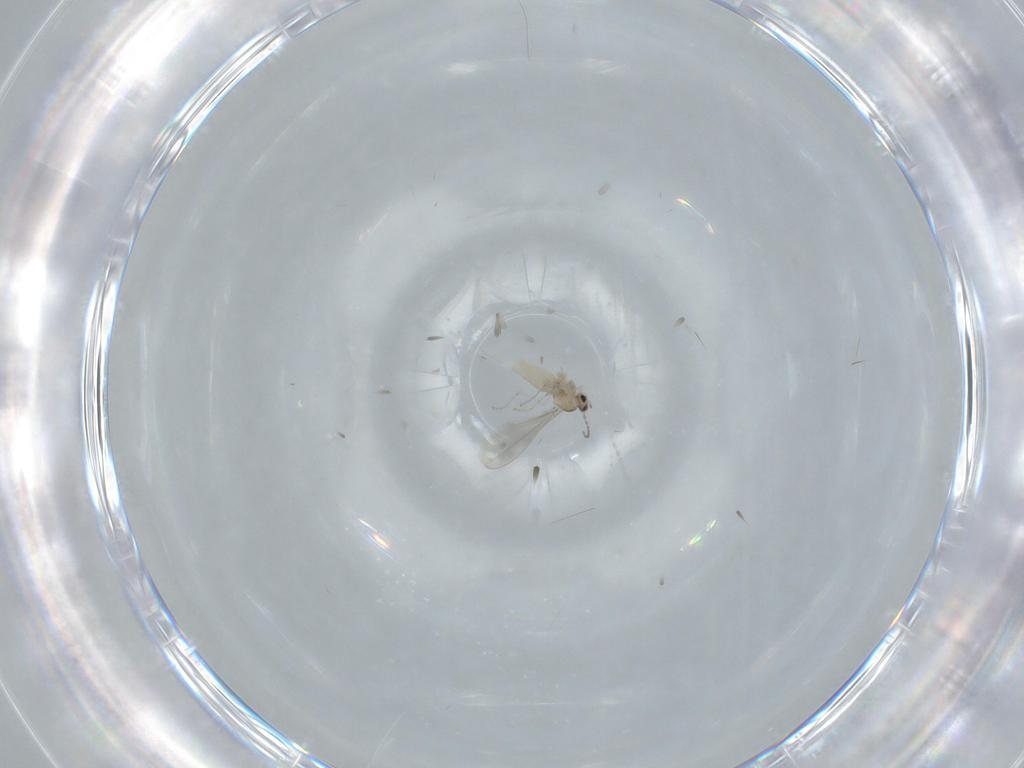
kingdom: Animalia
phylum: Arthropoda
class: Insecta
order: Diptera
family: Cecidomyiidae
